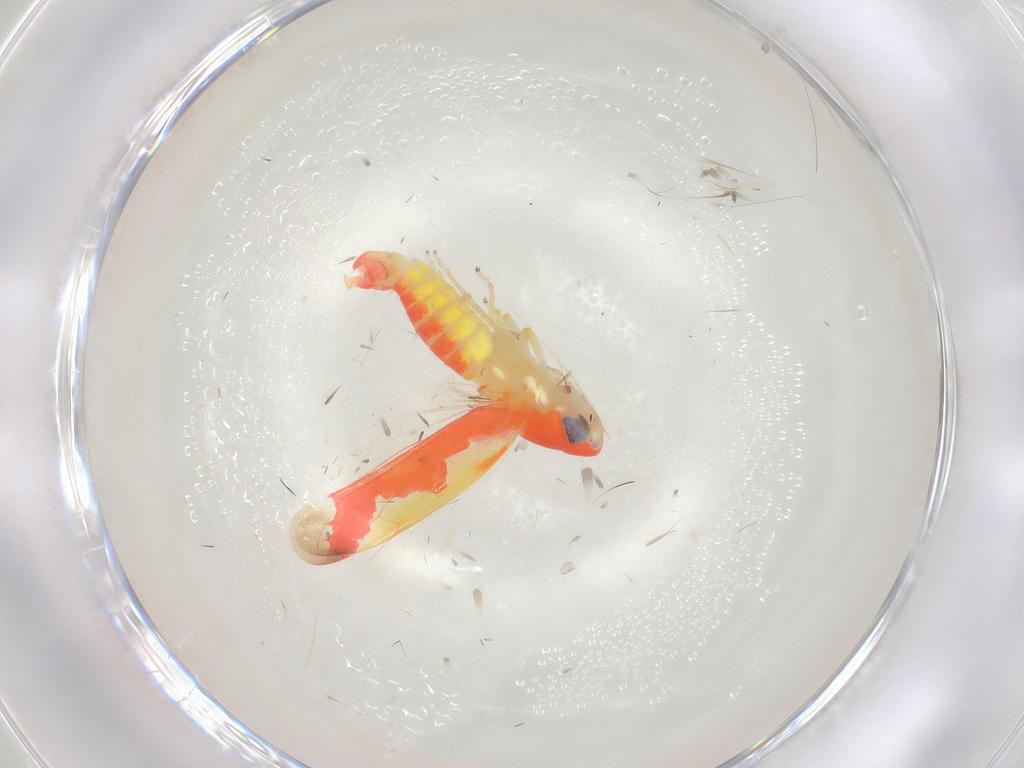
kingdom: Animalia
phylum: Arthropoda
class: Insecta
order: Hemiptera
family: Cicadellidae
